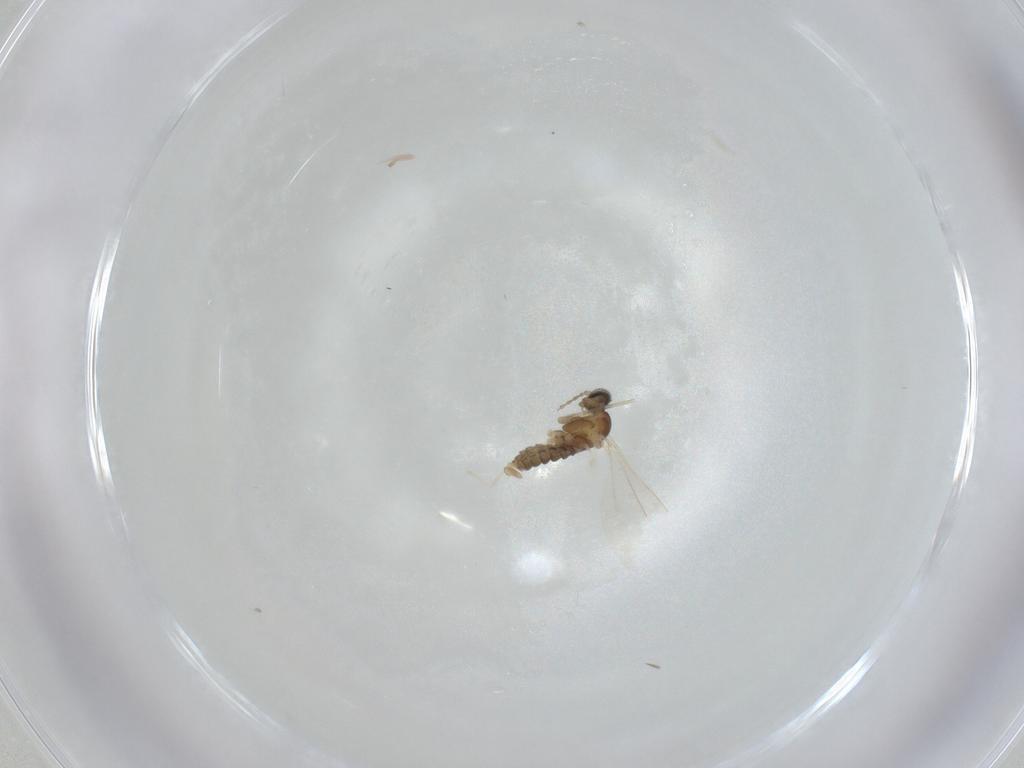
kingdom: Animalia
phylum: Arthropoda
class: Insecta
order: Diptera
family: Cecidomyiidae
